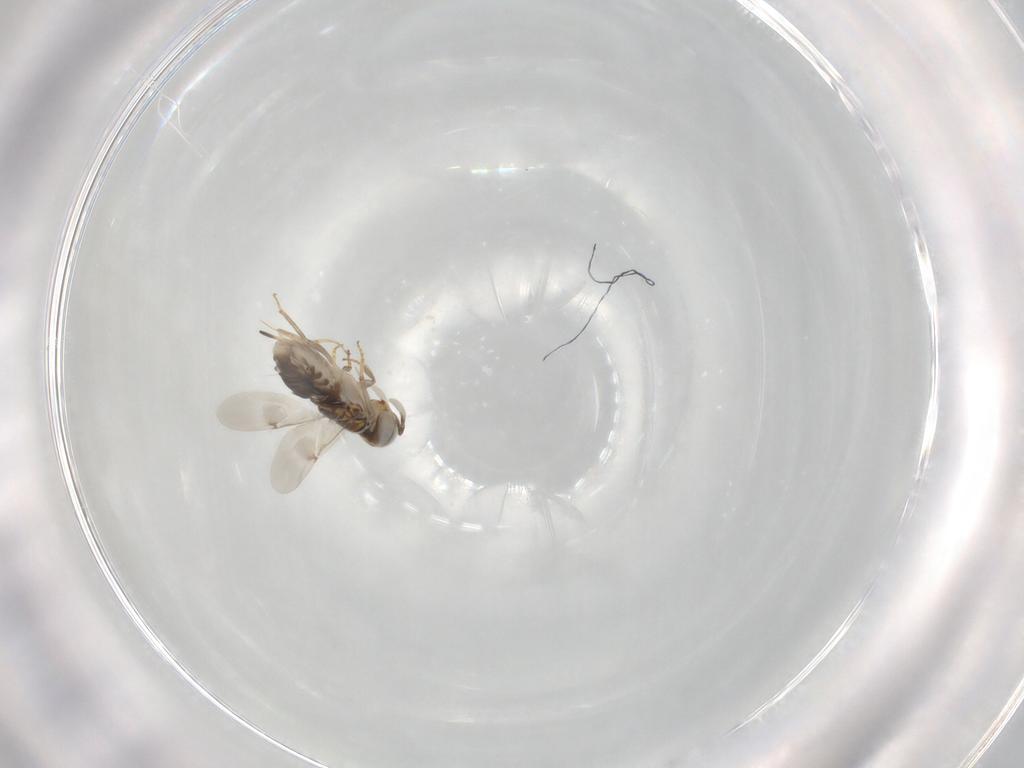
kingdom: Animalia
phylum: Arthropoda
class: Insecta
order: Hymenoptera
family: Encyrtidae
